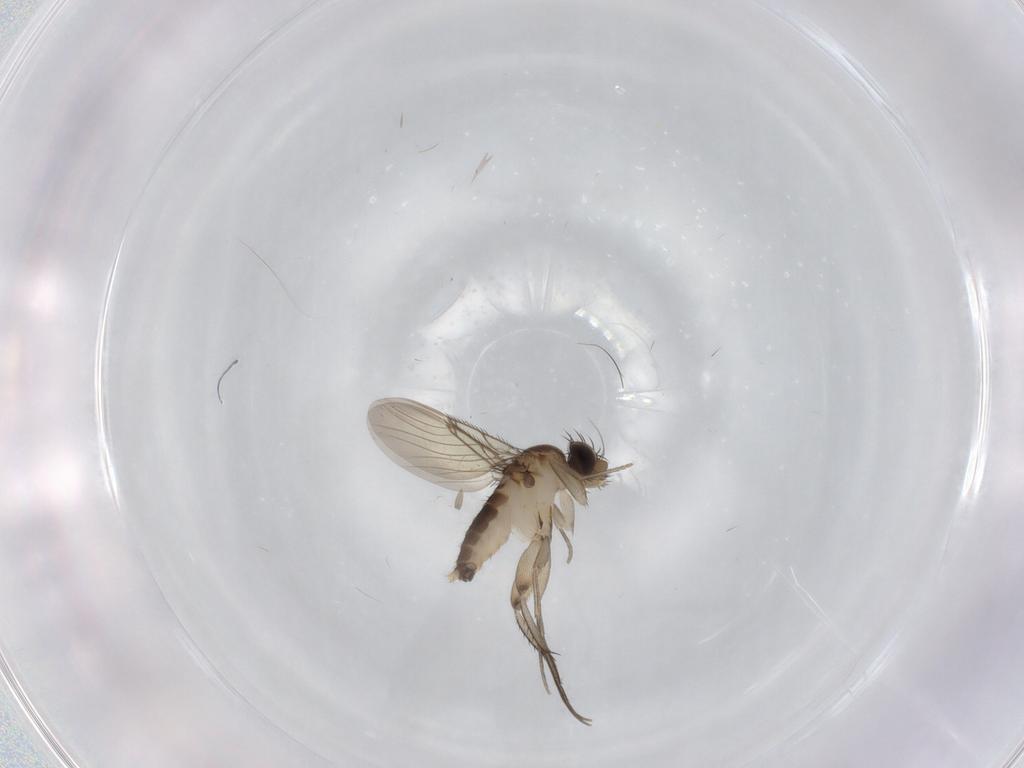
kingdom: Animalia
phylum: Arthropoda
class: Insecta
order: Diptera
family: Phoridae
